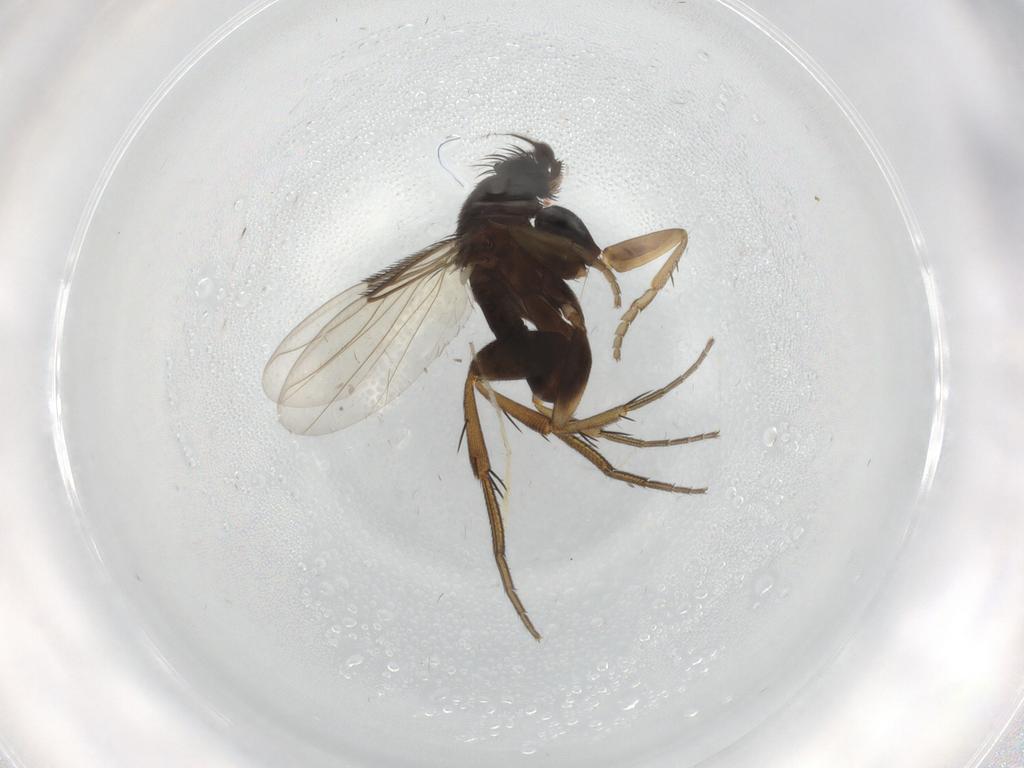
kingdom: Animalia
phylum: Arthropoda
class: Insecta
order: Diptera
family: Phoridae
